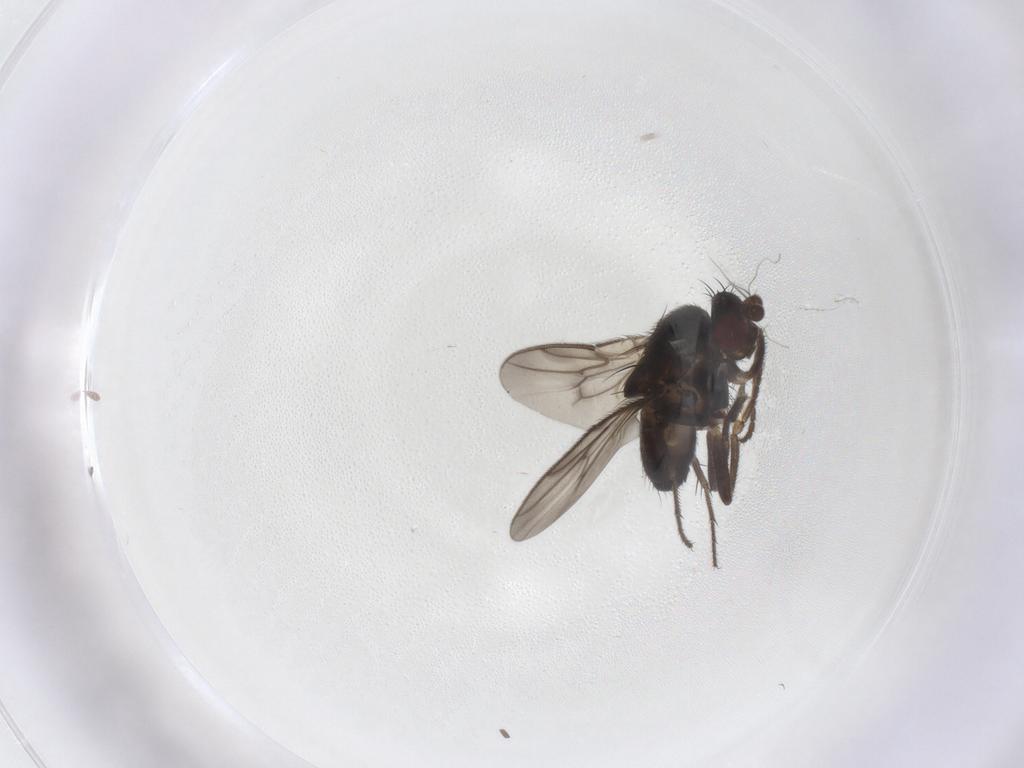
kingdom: Animalia
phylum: Arthropoda
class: Insecta
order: Diptera
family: Sphaeroceridae
